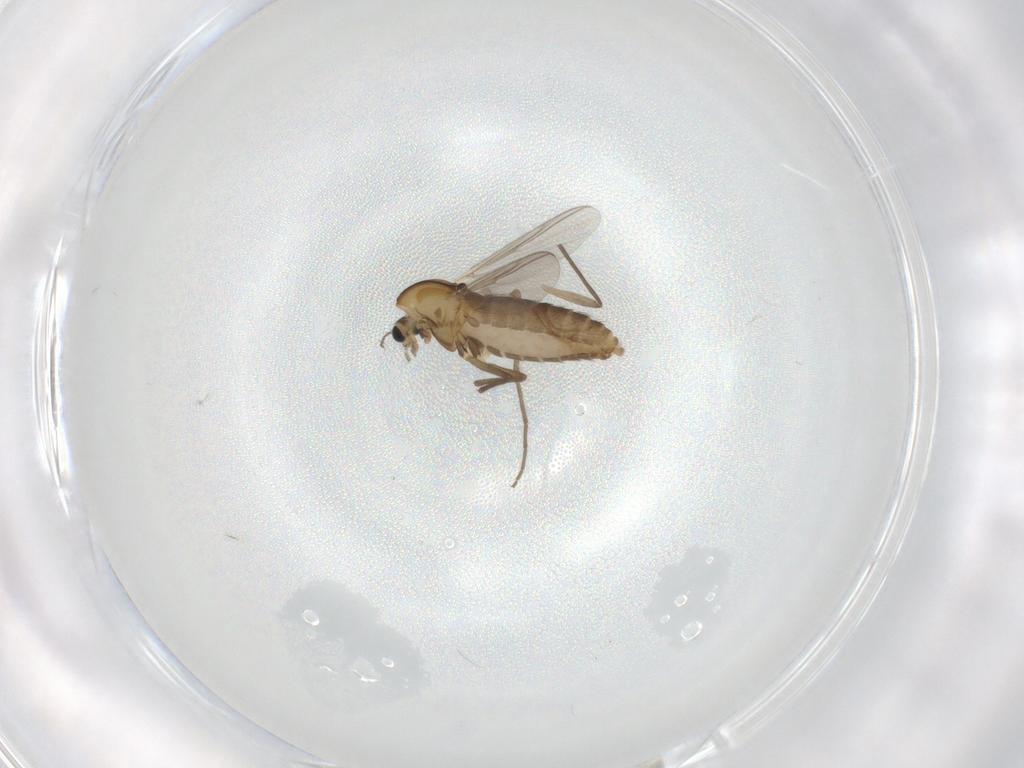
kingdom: Animalia
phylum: Arthropoda
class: Insecta
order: Diptera
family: Chironomidae
